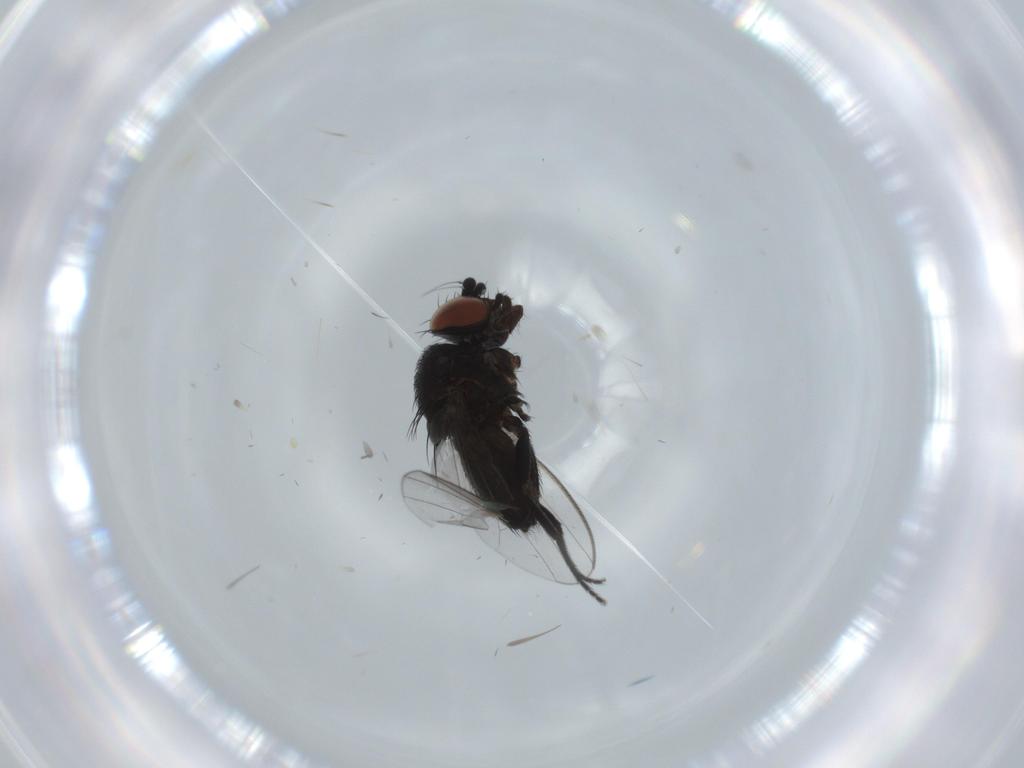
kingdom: Animalia
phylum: Arthropoda
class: Insecta
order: Diptera
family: Milichiidae
